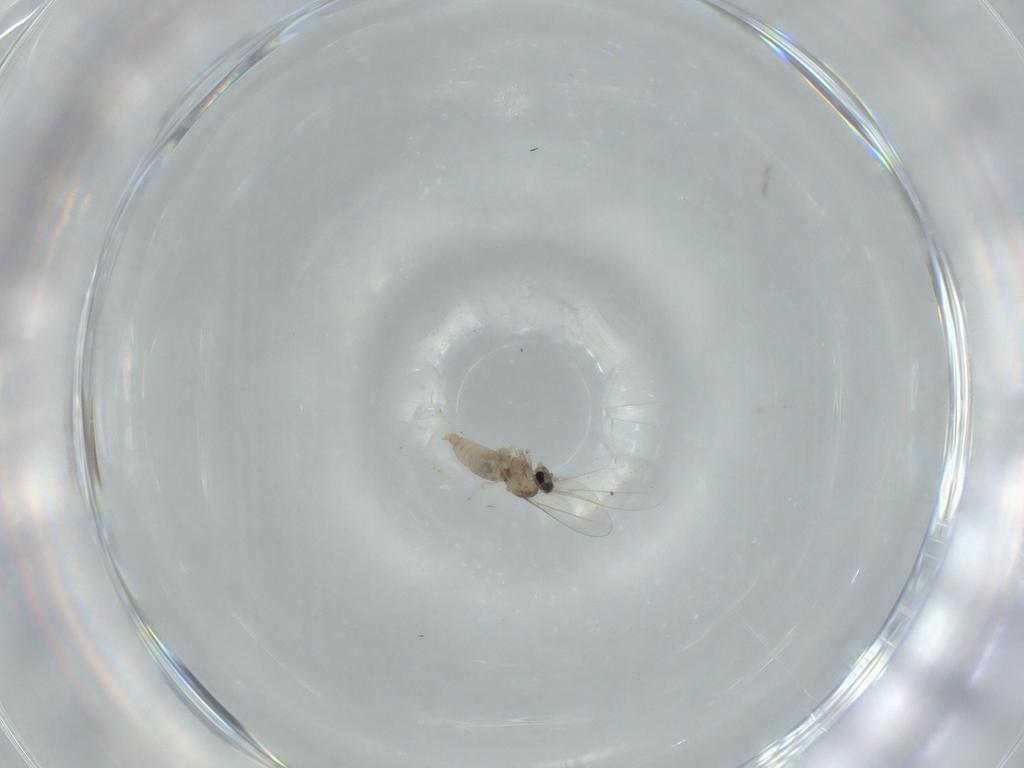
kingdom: Animalia
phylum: Arthropoda
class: Insecta
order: Diptera
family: Cecidomyiidae
